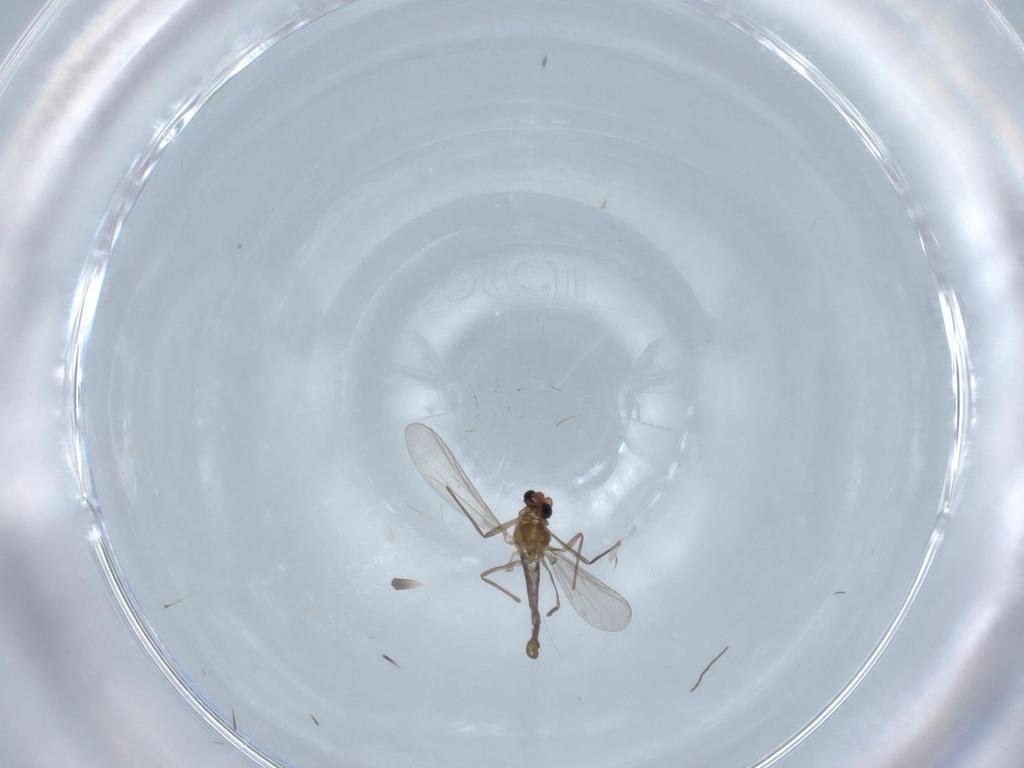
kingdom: Animalia
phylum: Arthropoda
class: Insecta
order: Diptera
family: Chironomidae
